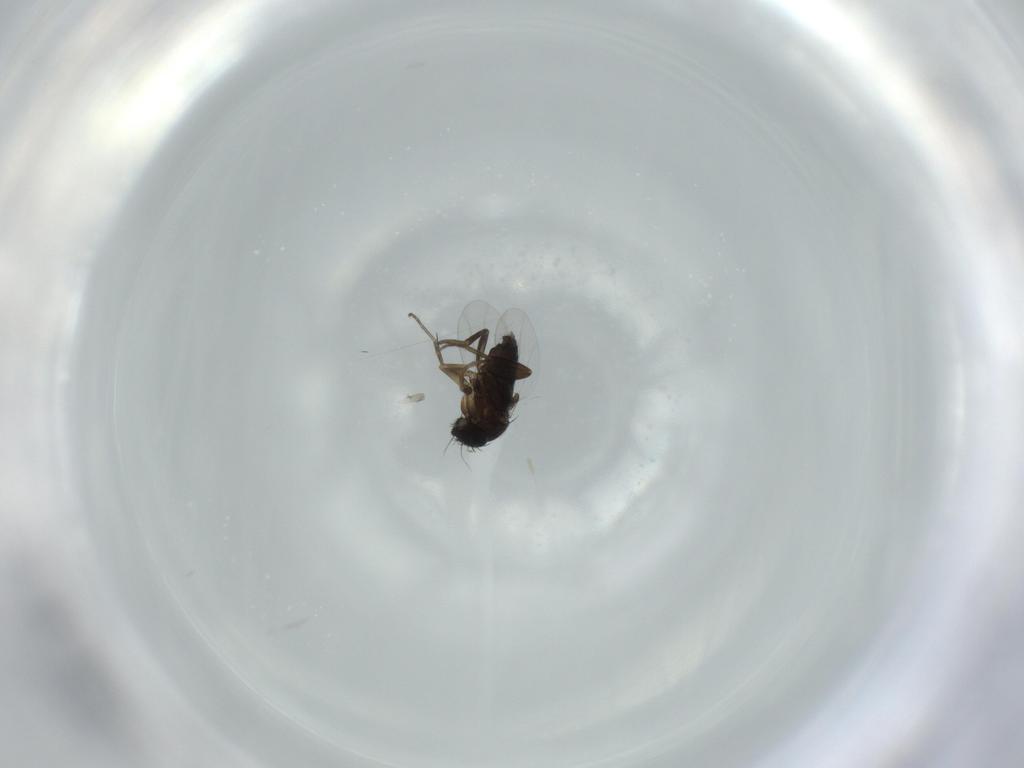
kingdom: Animalia
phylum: Arthropoda
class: Insecta
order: Diptera
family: Phoridae
